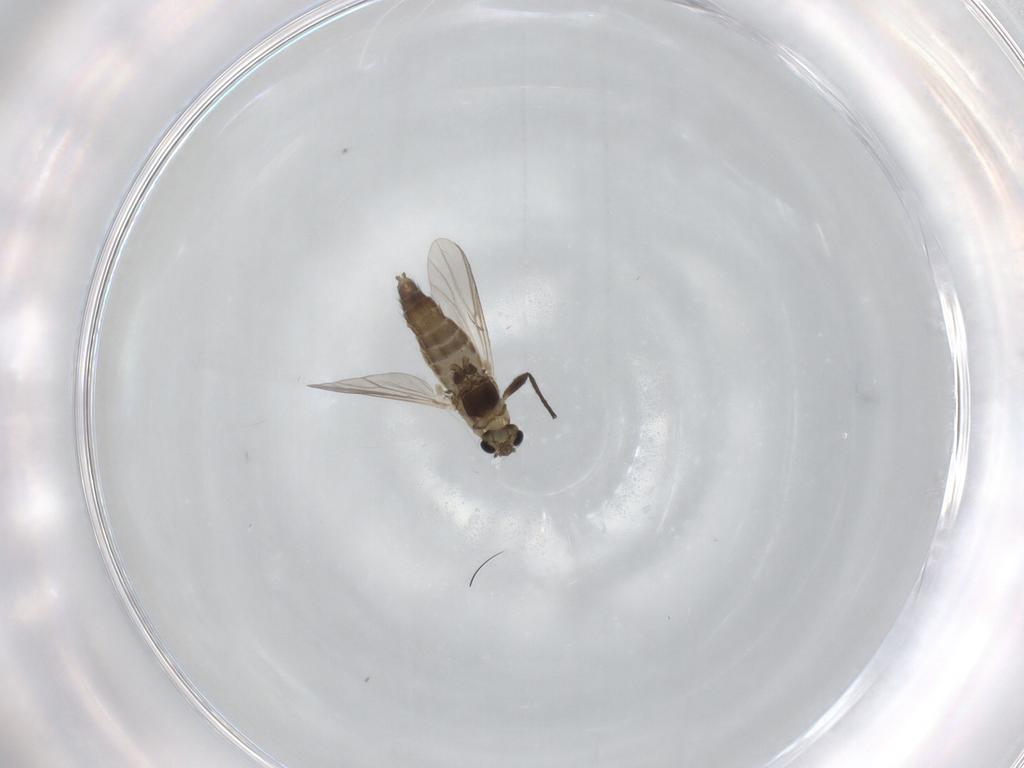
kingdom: Animalia
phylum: Arthropoda
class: Insecta
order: Diptera
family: Chironomidae
